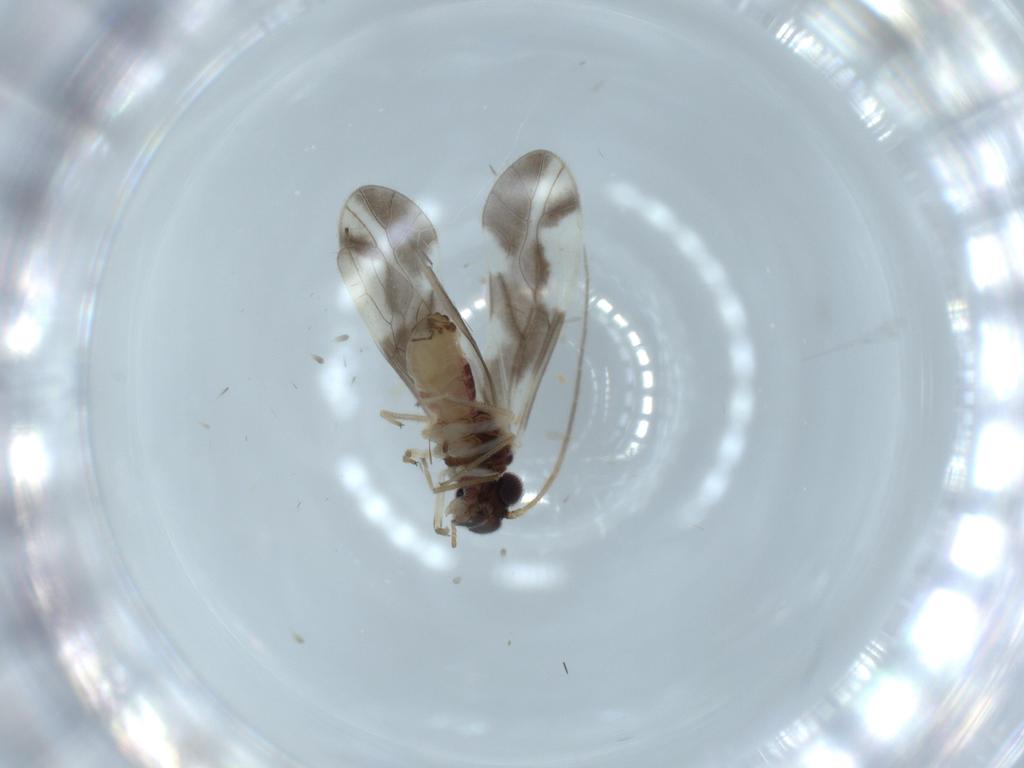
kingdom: Animalia
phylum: Arthropoda
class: Insecta
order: Psocodea
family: Caeciliusidae
